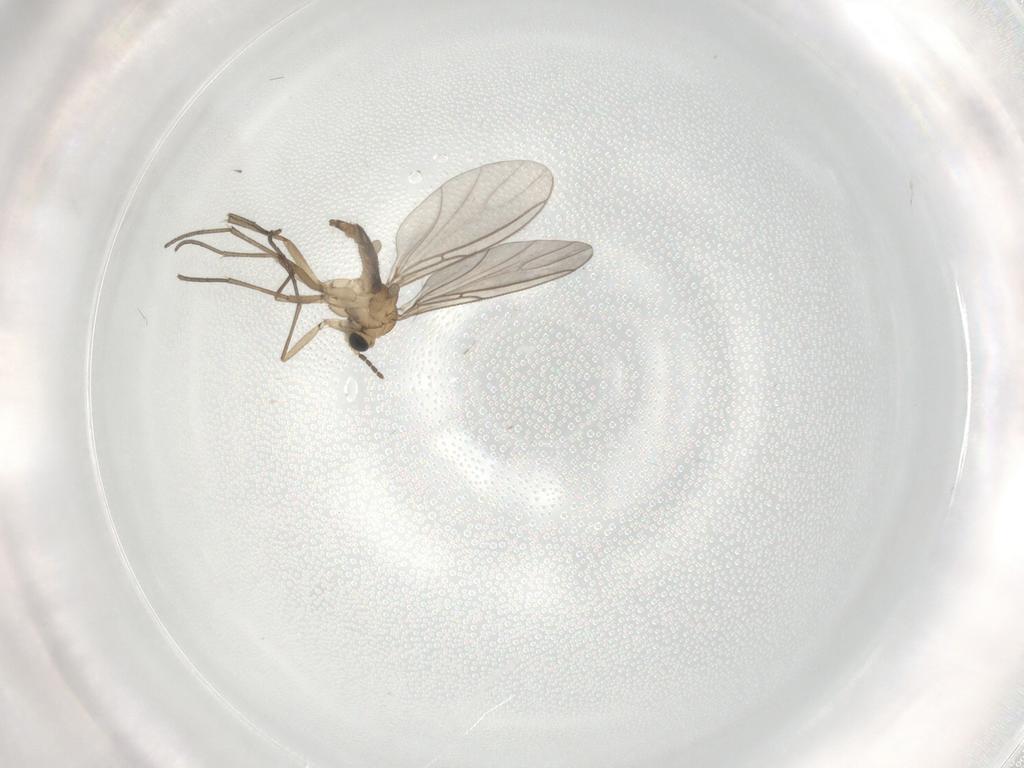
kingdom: Animalia
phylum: Arthropoda
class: Insecta
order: Diptera
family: Sciaridae
